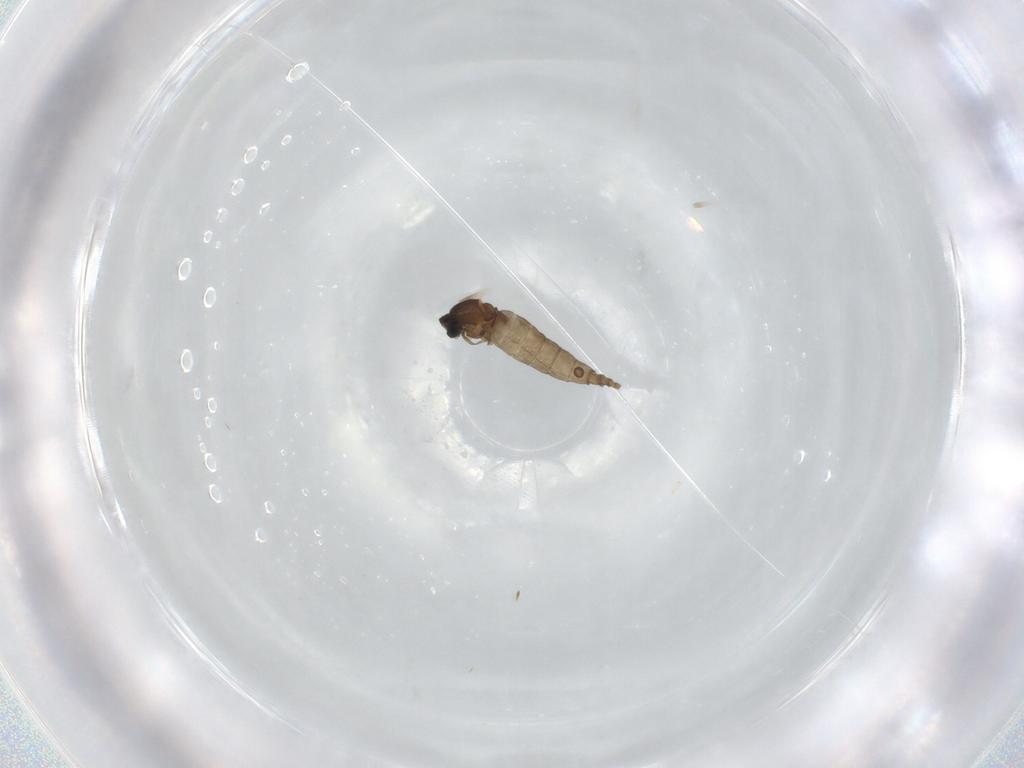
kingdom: Animalia
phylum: Arthropoda
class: Insecta
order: Diptera
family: Cecidomyiidae
